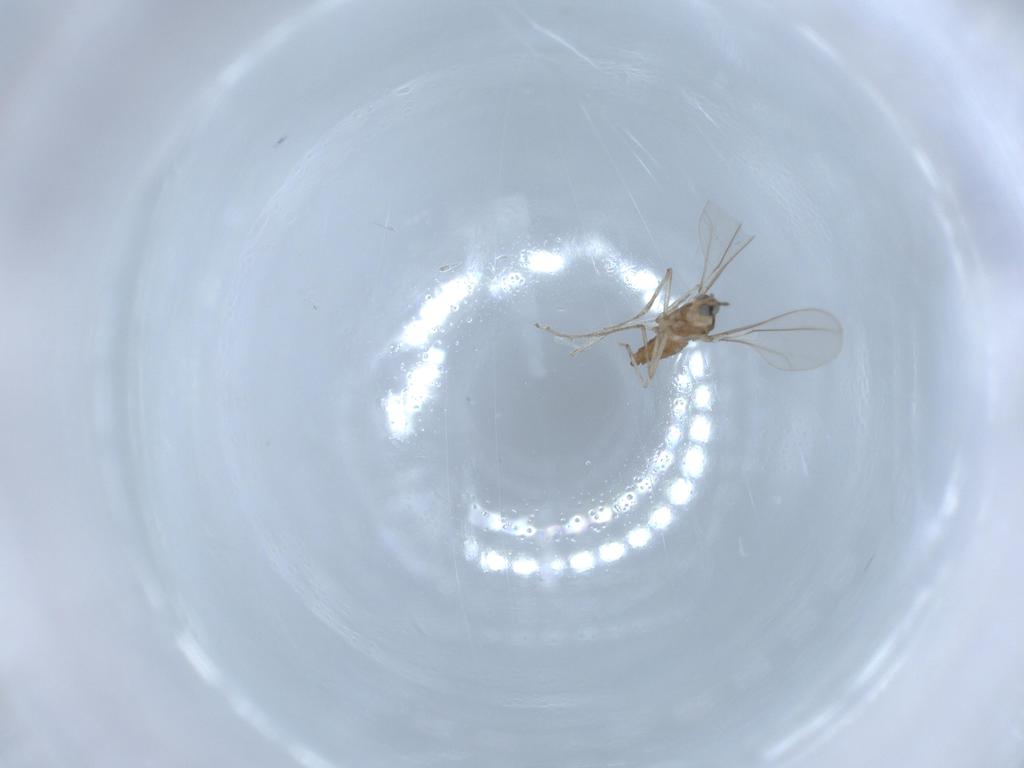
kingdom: Animalia
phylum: Arthropoda
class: Insecta
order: Diptera
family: Cecidomyiidae
